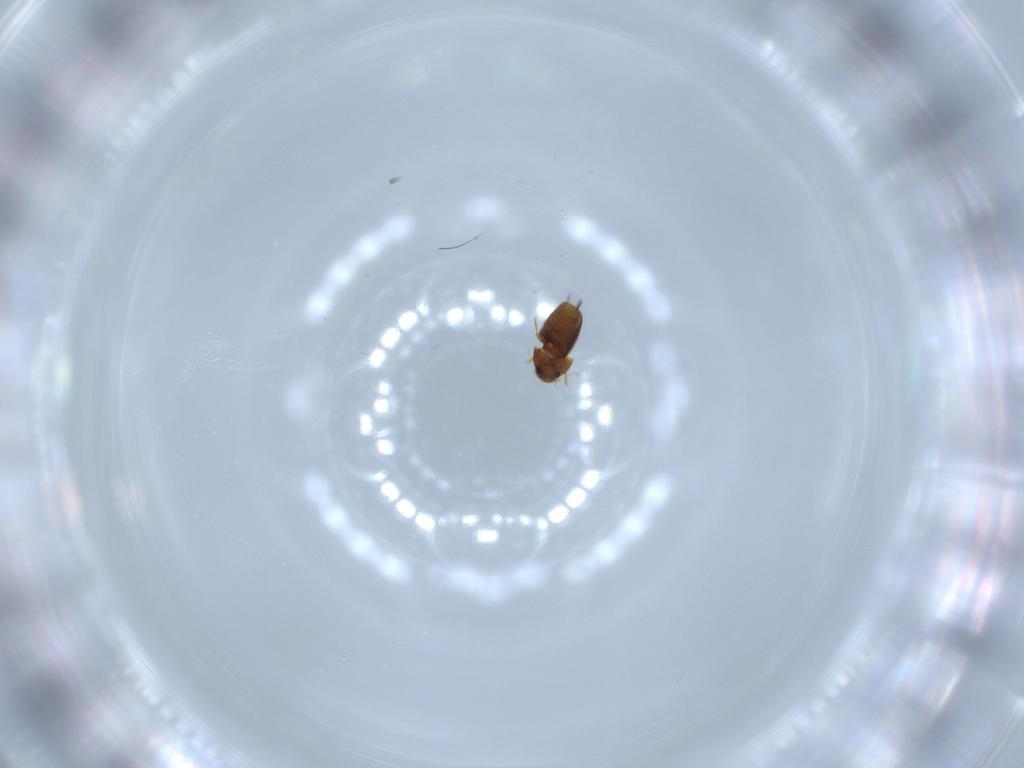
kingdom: Animalia
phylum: Arthropoda
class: Insecta
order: Coleoptera
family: Ptiliidae
